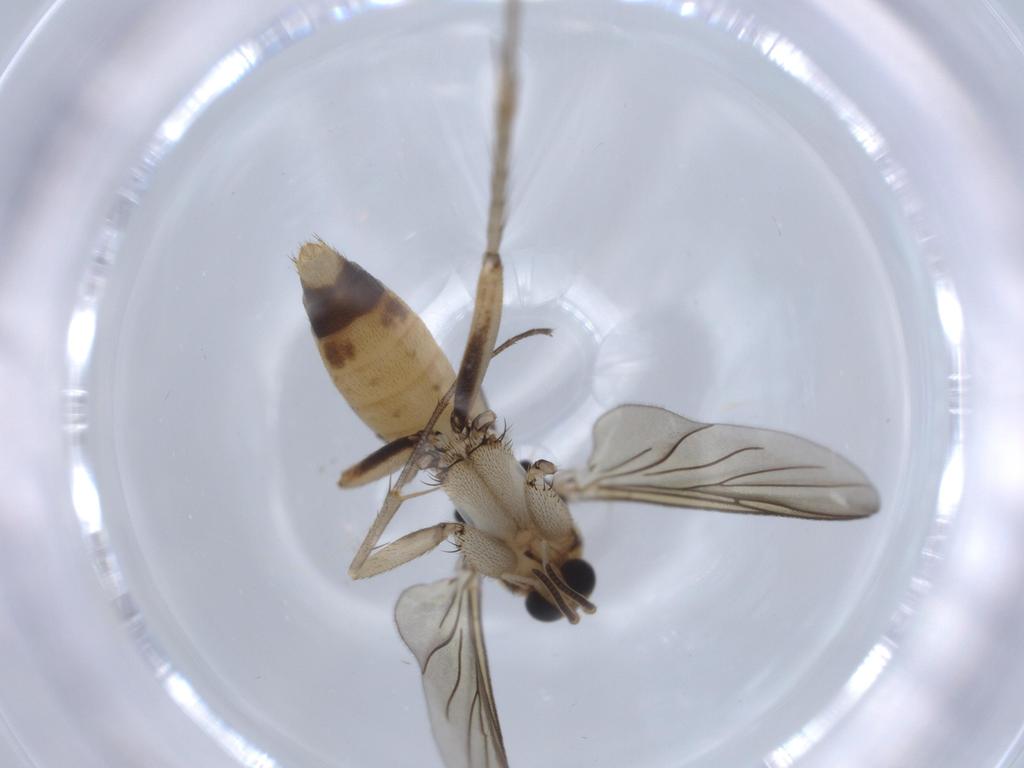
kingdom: Animalia
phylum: Arthropoda
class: Insecta
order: Diptera
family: Mycetophilidae
